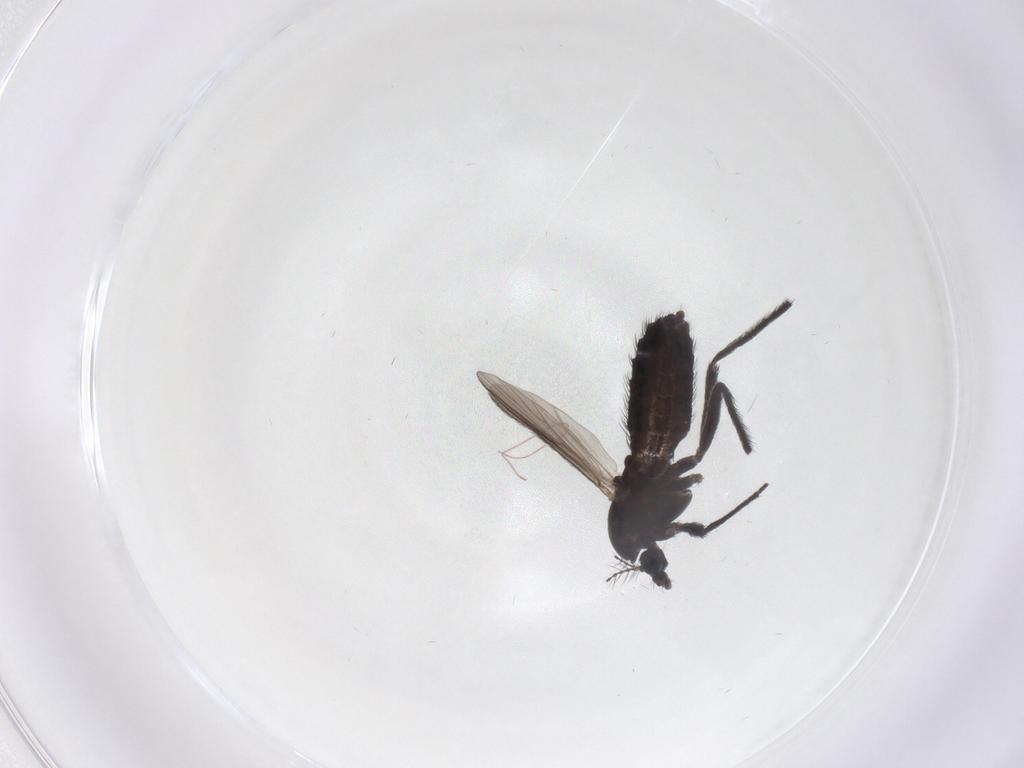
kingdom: Animalia
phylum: Arthropoda
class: Insecta
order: Diptera
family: Chironomidae
